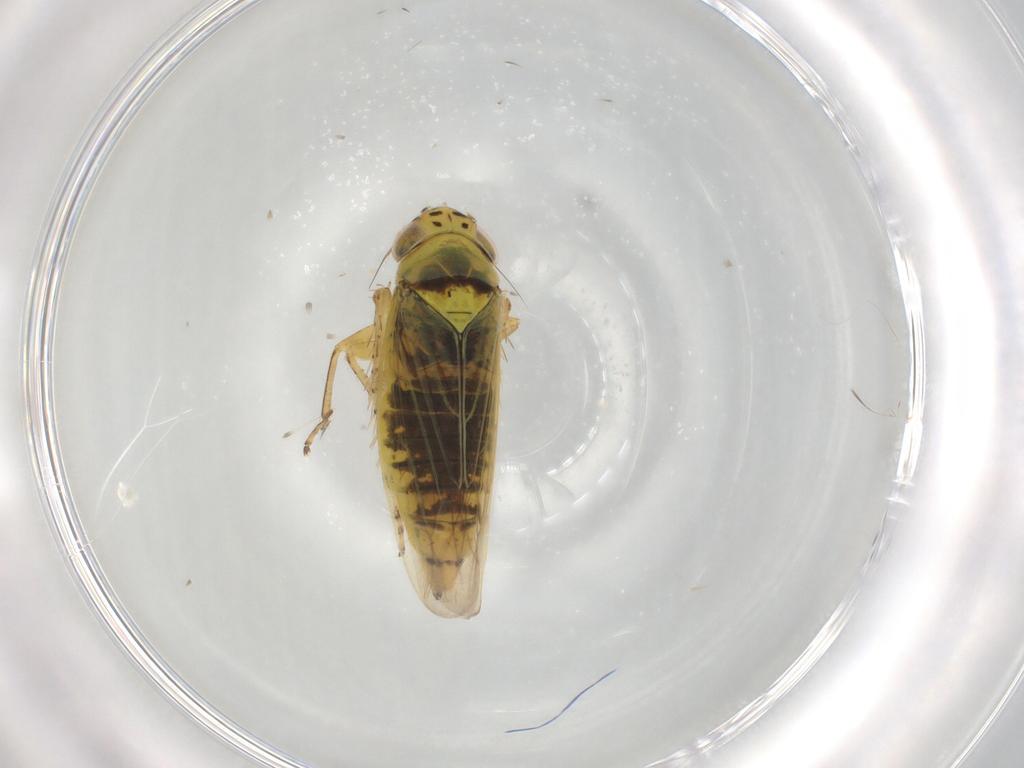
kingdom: Animalia
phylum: Arthropoda
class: Insecta
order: Hemiptera
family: Cicadellidae
